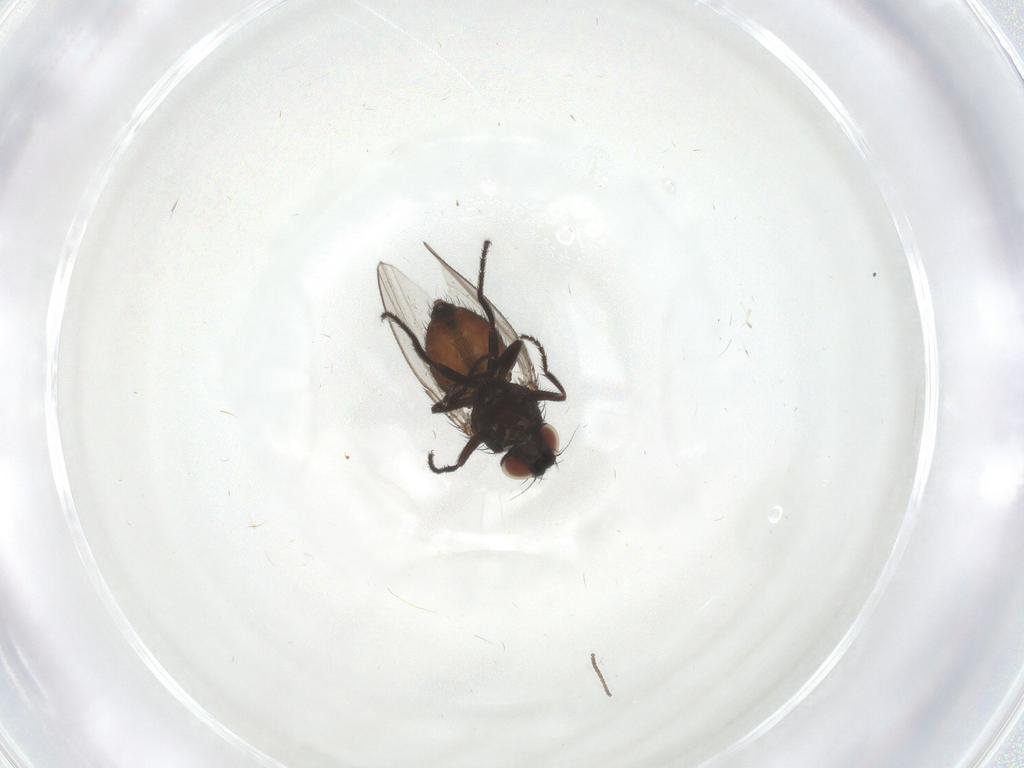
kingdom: Animalia
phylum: Arthropoda
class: Insecta
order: Diptera
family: Milichiidae
